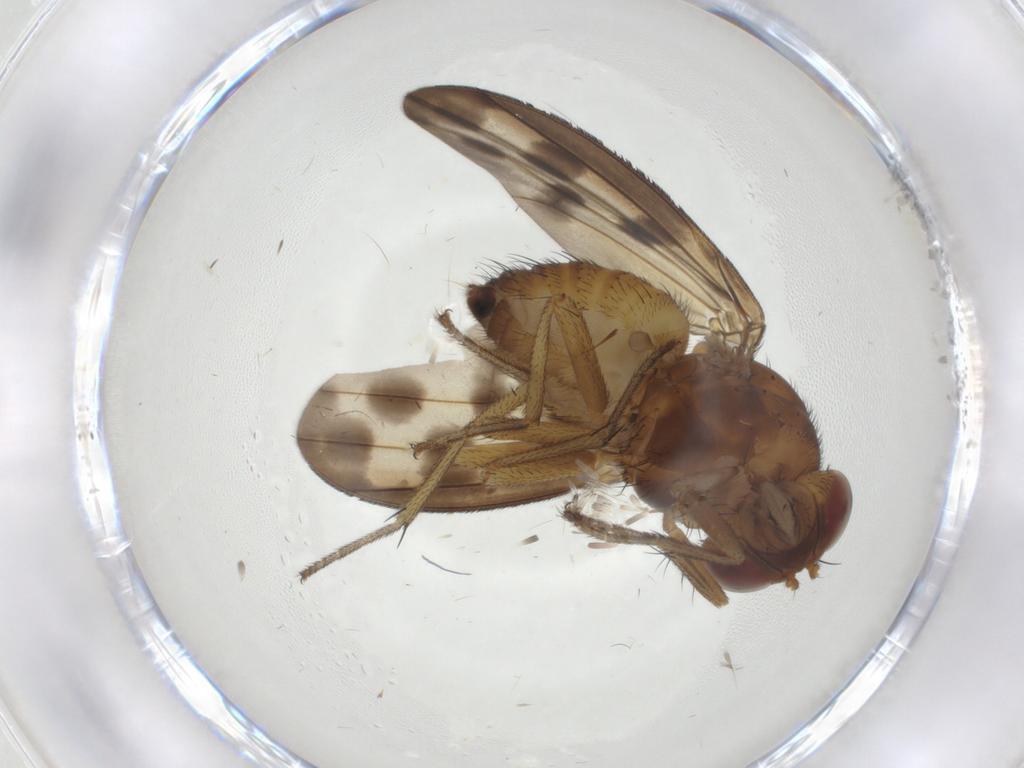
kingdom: Animalia
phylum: Arthropoda
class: Insecta
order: Diptera
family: Lauxaniidae
